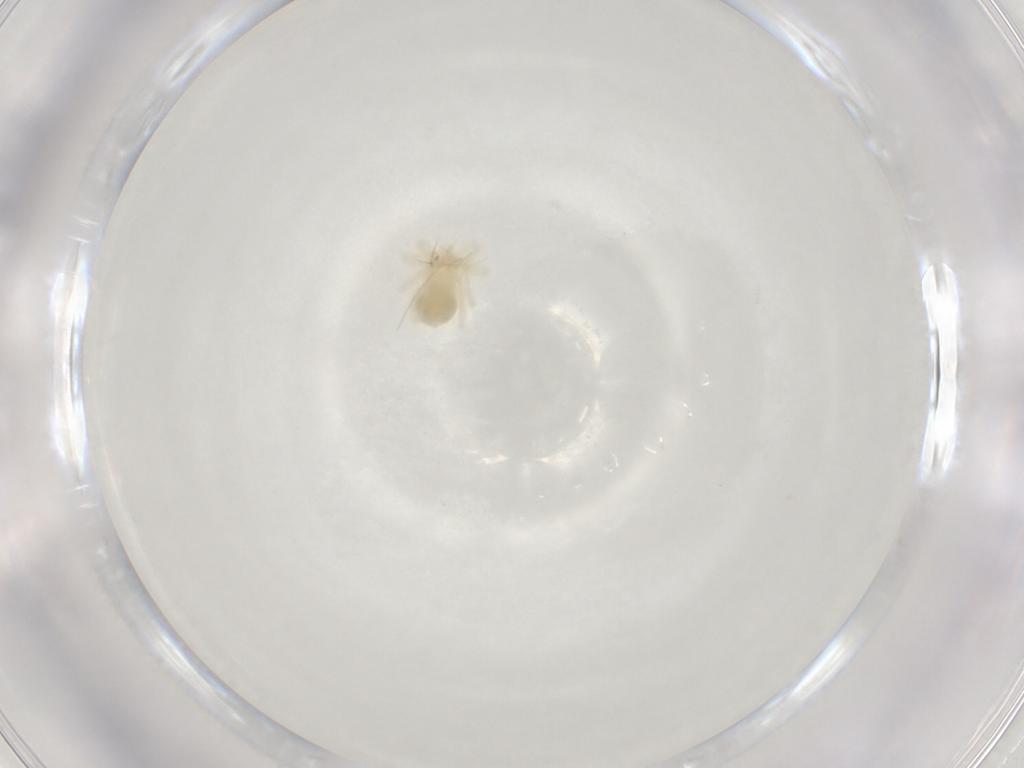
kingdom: Animalia
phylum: Arthropoda
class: Arachnida
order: Trombidiformes
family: Anystidae
